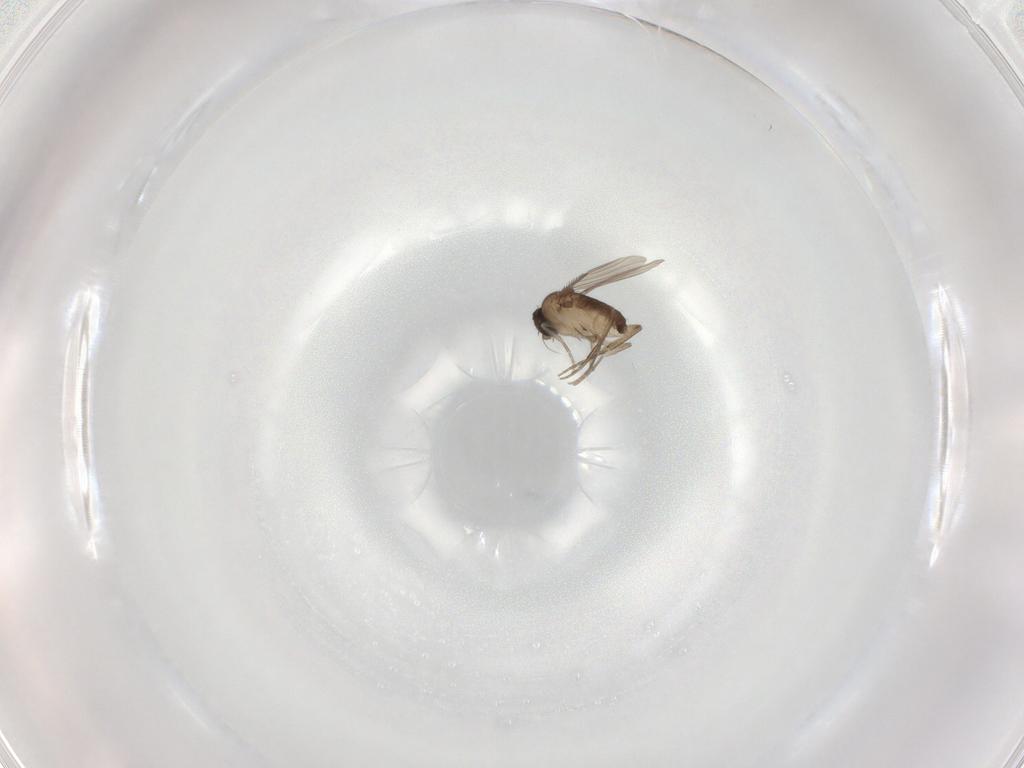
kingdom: Animalia
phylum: Arthropoda
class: Insecta
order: Diptera
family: Phoridae
